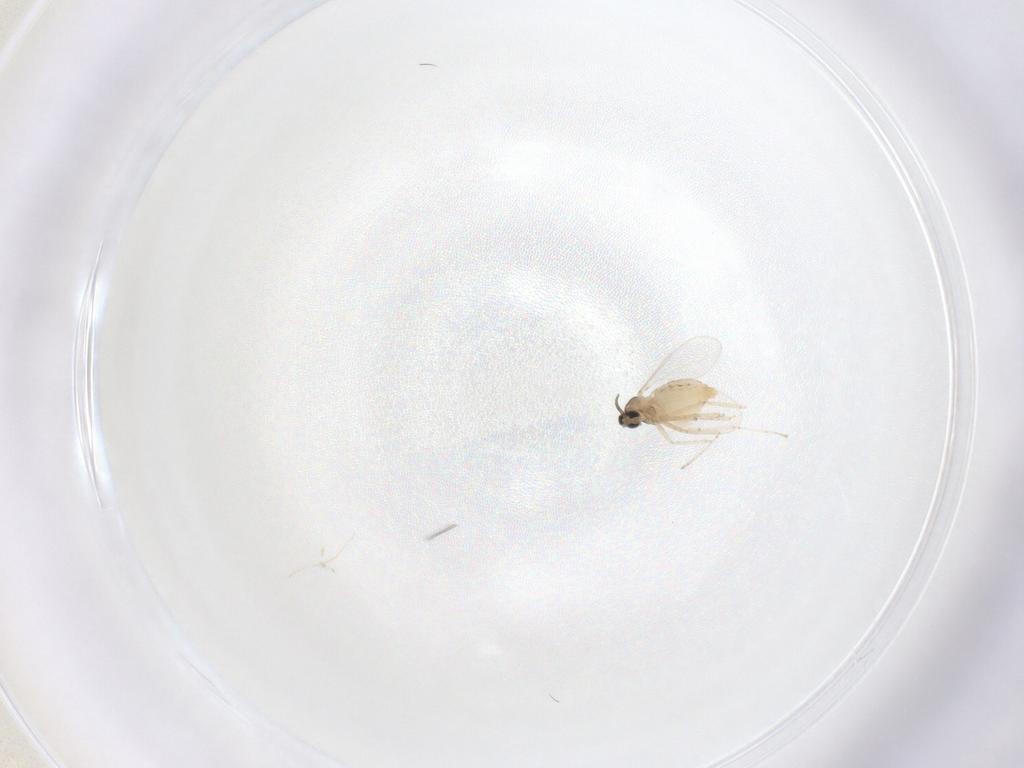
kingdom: Animalia
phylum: Arthropoda
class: Insecta
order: Diptera
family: Cecidomyiidae
